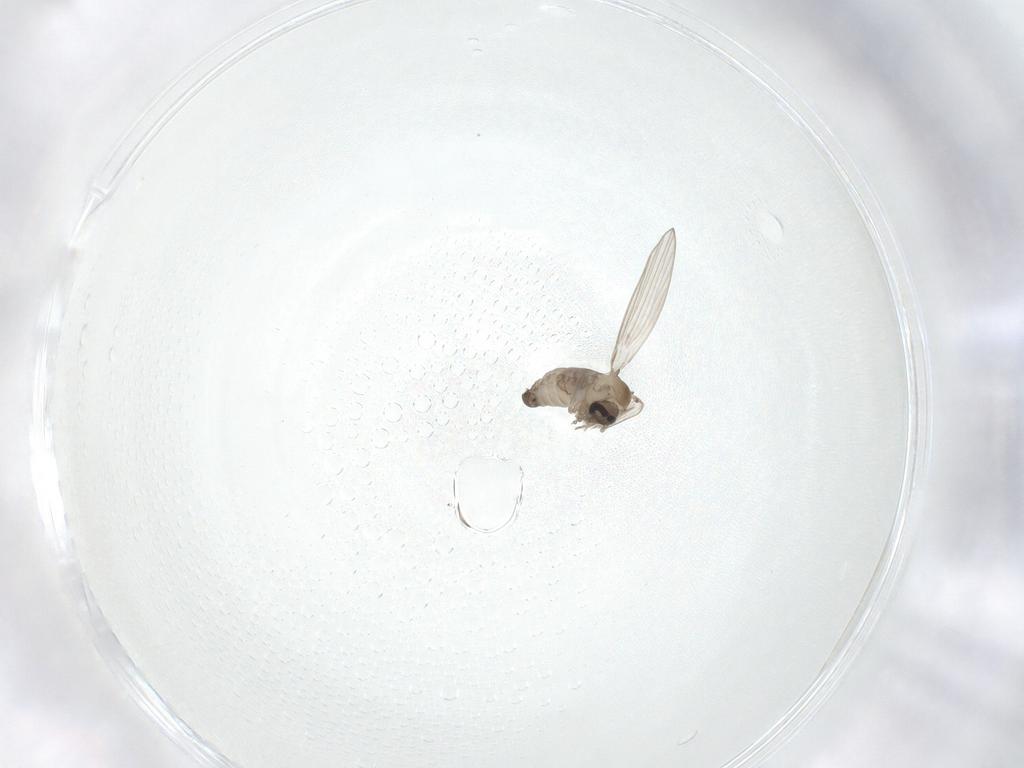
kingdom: Animalia
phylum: Arthropoda
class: Insecta
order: Diptera
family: Psychodidae
